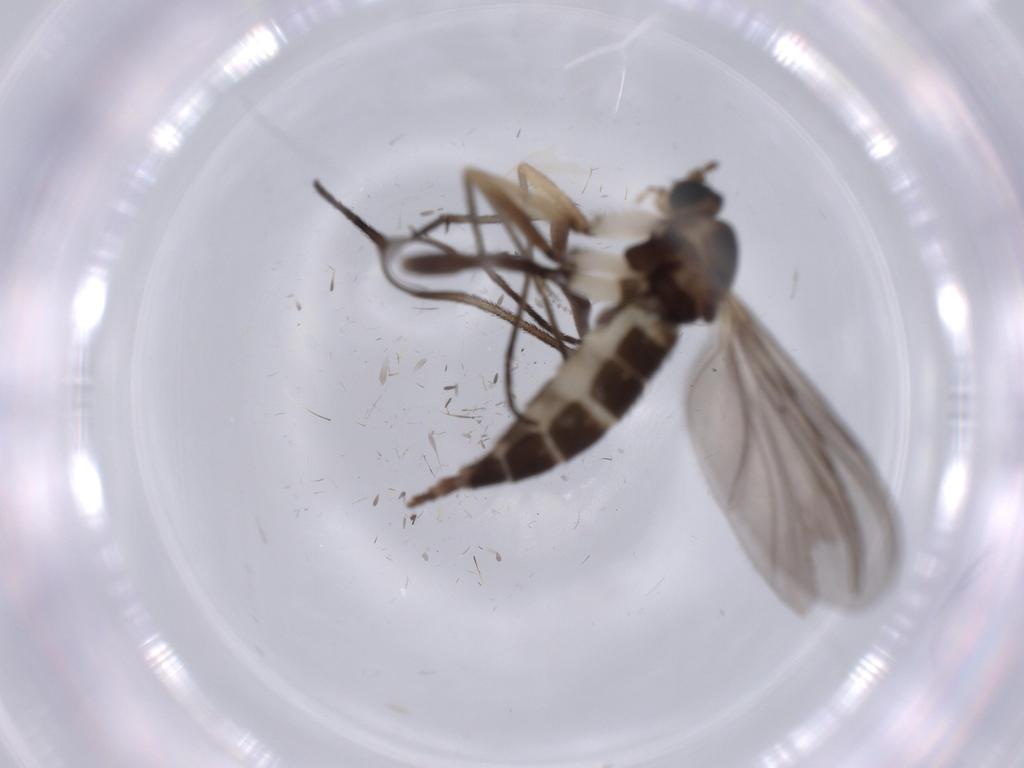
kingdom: Animalia
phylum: Arthropoda
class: Insecta
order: Diptera
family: Cecidomyiidae
